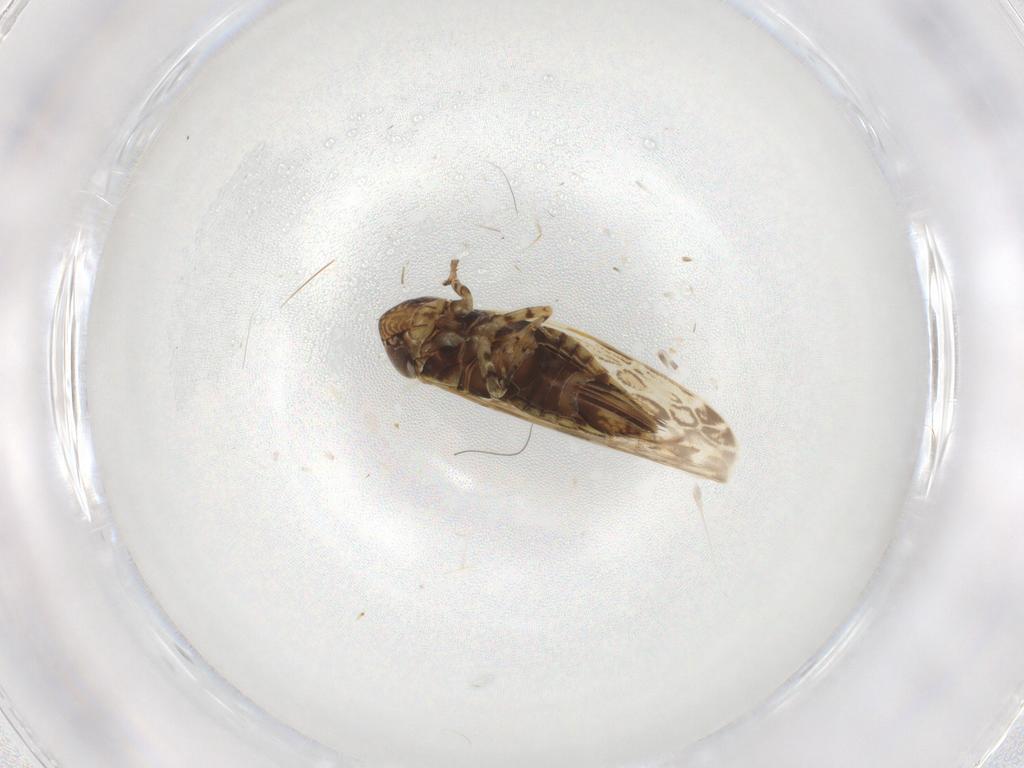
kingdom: Animalia
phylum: Arthropoda
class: Insecta
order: Hemiptera
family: Cicadellidae
